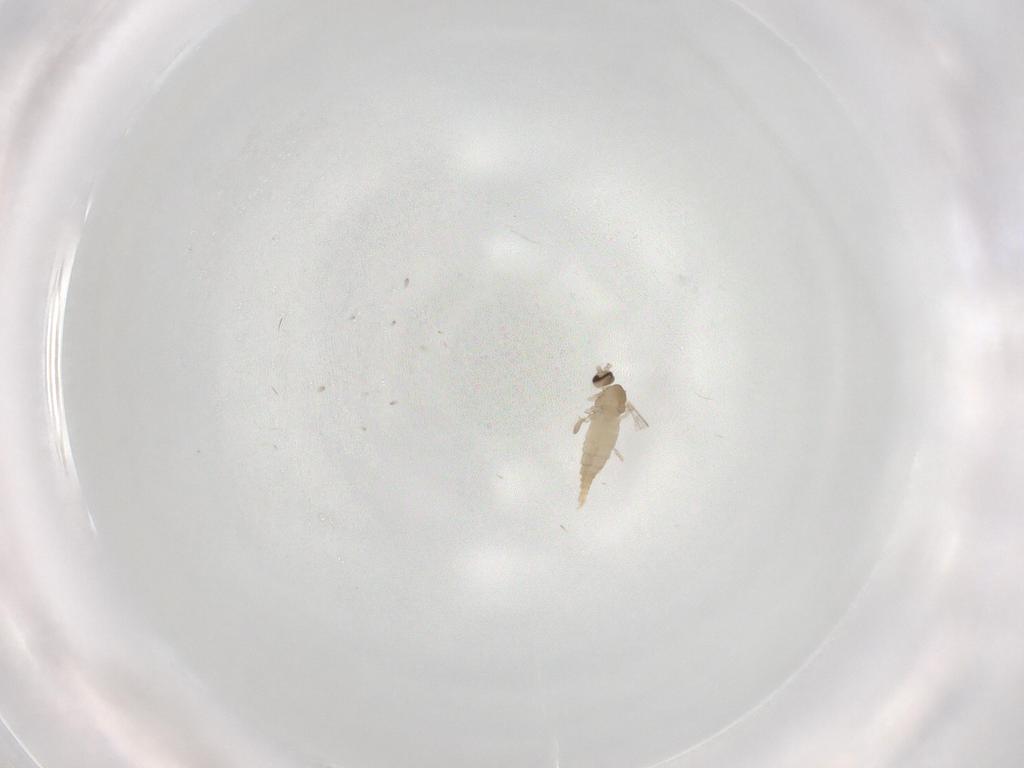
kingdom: Animalia
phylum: Arthropoda
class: Insecta
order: Diptera
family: Cecidomyiidae
